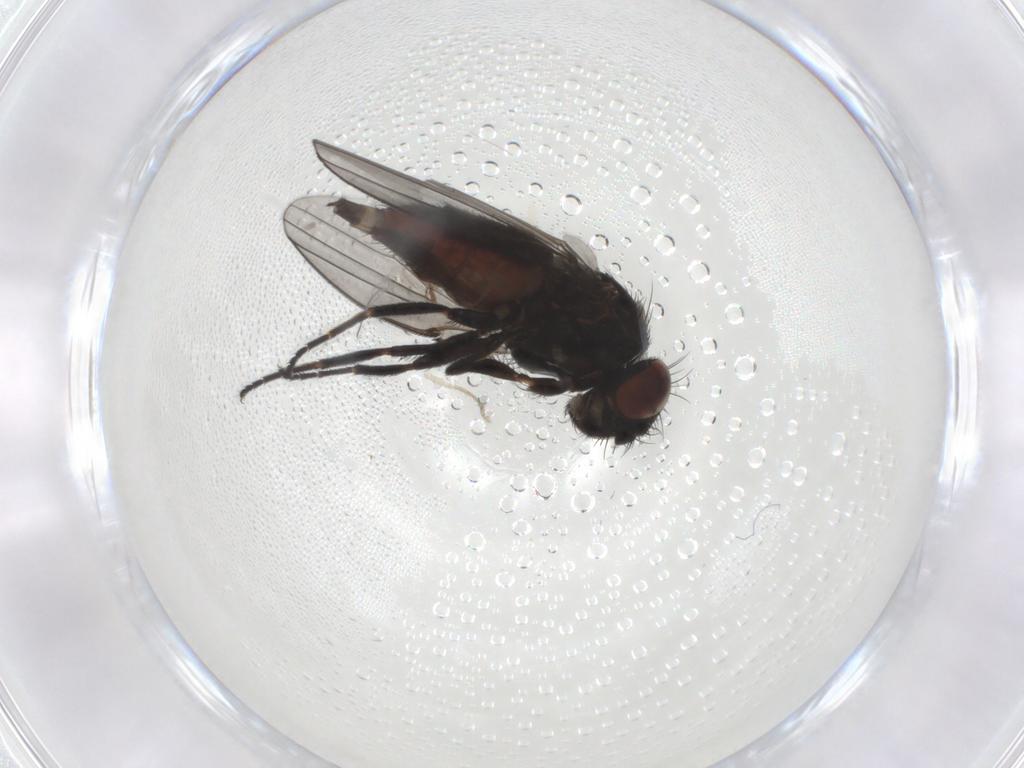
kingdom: Animalia
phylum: Arthropoda
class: Insecta
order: Diptera
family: Milichiidae
